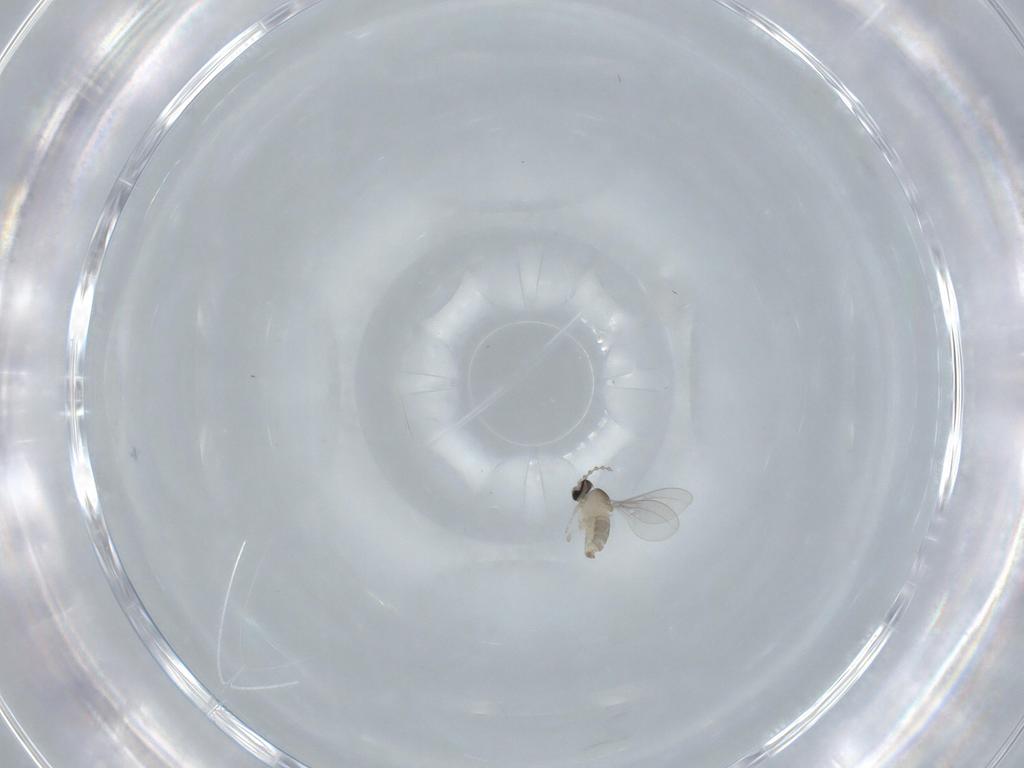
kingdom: Animalia
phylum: Arthropoda
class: Insecta
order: Diptera
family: Cecidomyiidae
